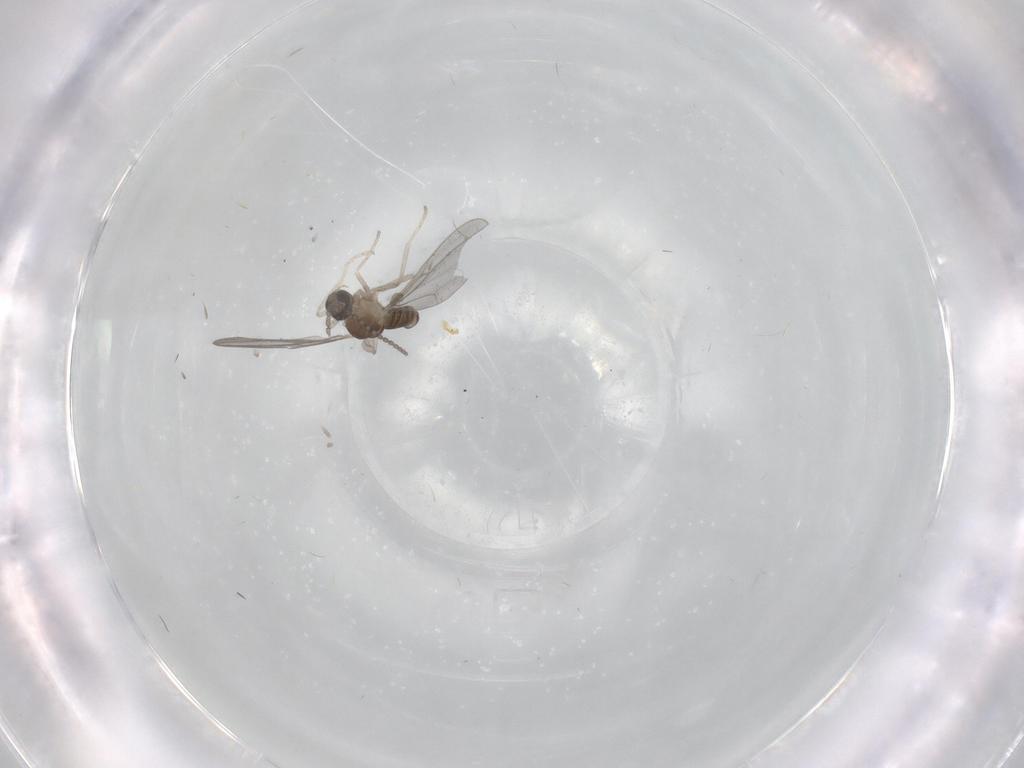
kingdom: Animalia
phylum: Arthropoda
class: Insecta
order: Diptera
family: Cecidomyiidae
